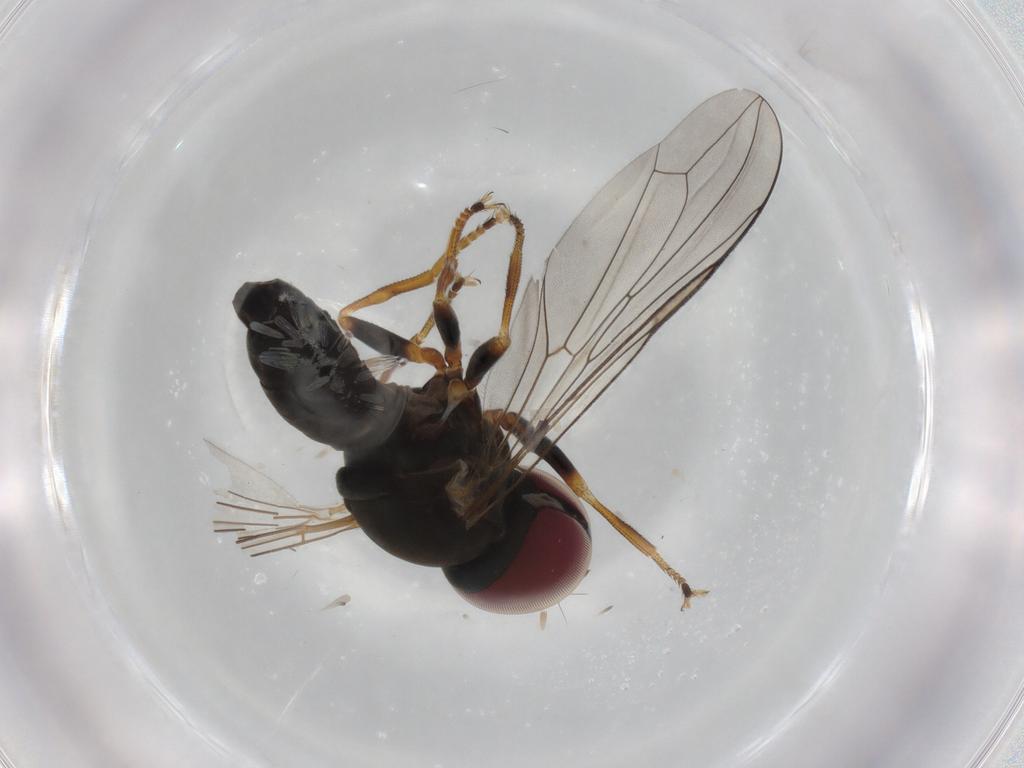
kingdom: Animalia
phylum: Arthropoda
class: Insecta
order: Diptera
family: Pipunculidae
